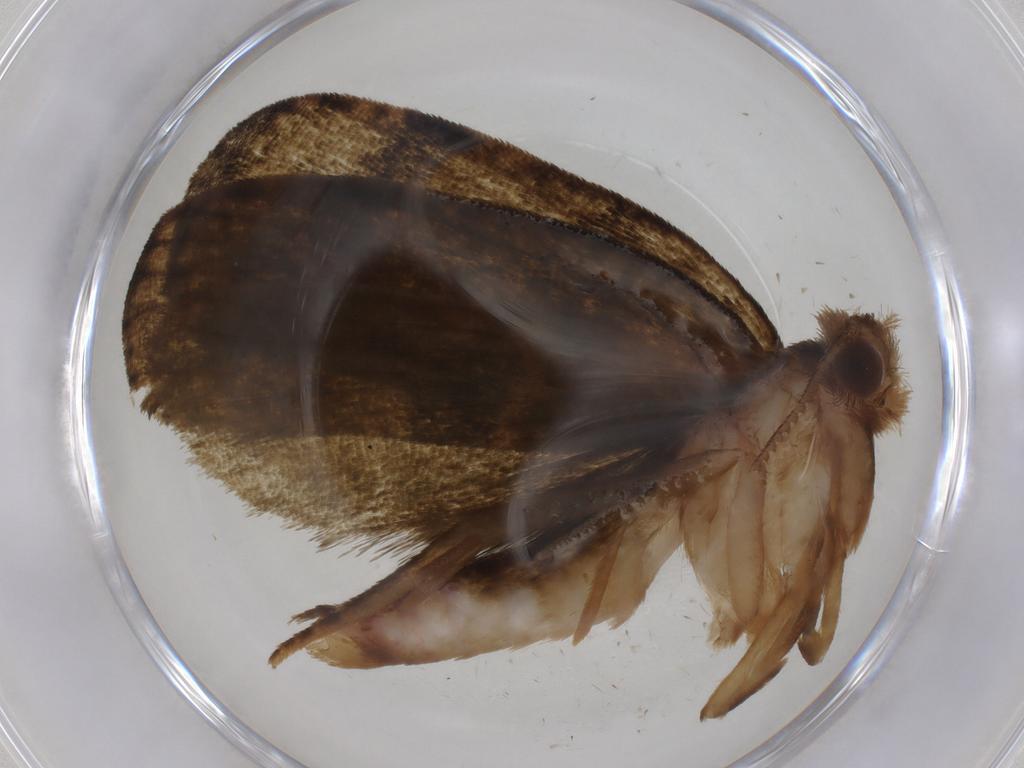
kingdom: Animalia
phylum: Arthropoda
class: Insecta
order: Lepidoptera
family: Geometridae
